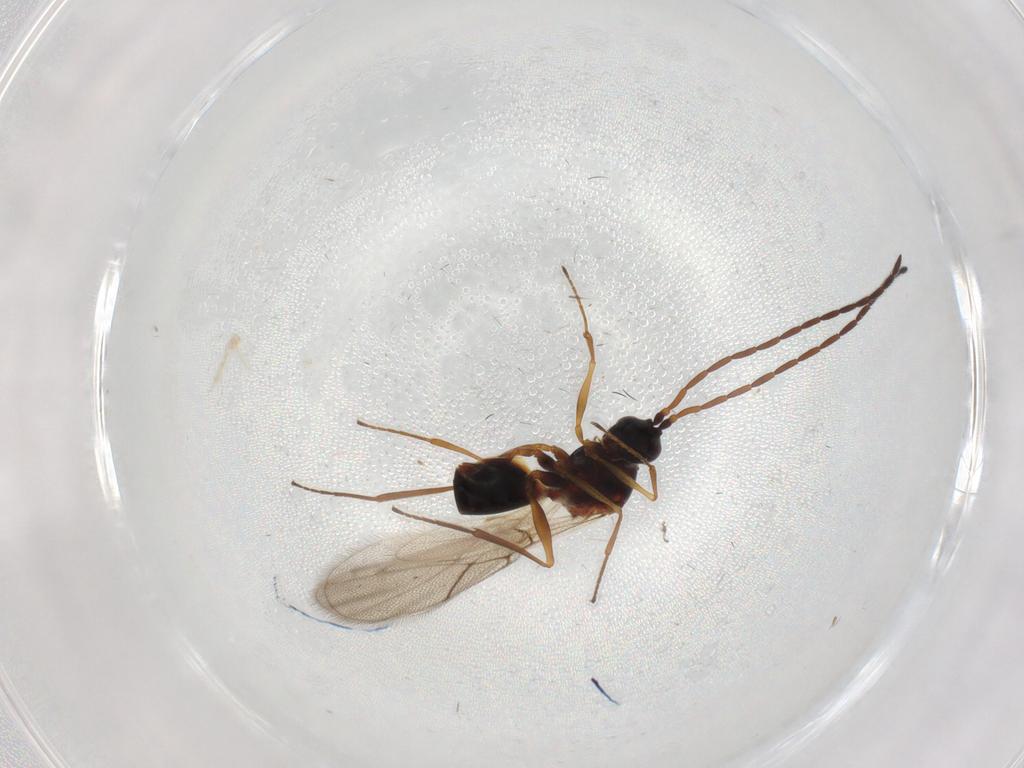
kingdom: Animalia
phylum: Arthropoda
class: Insecta
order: Hymenoptera
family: Figitidae
